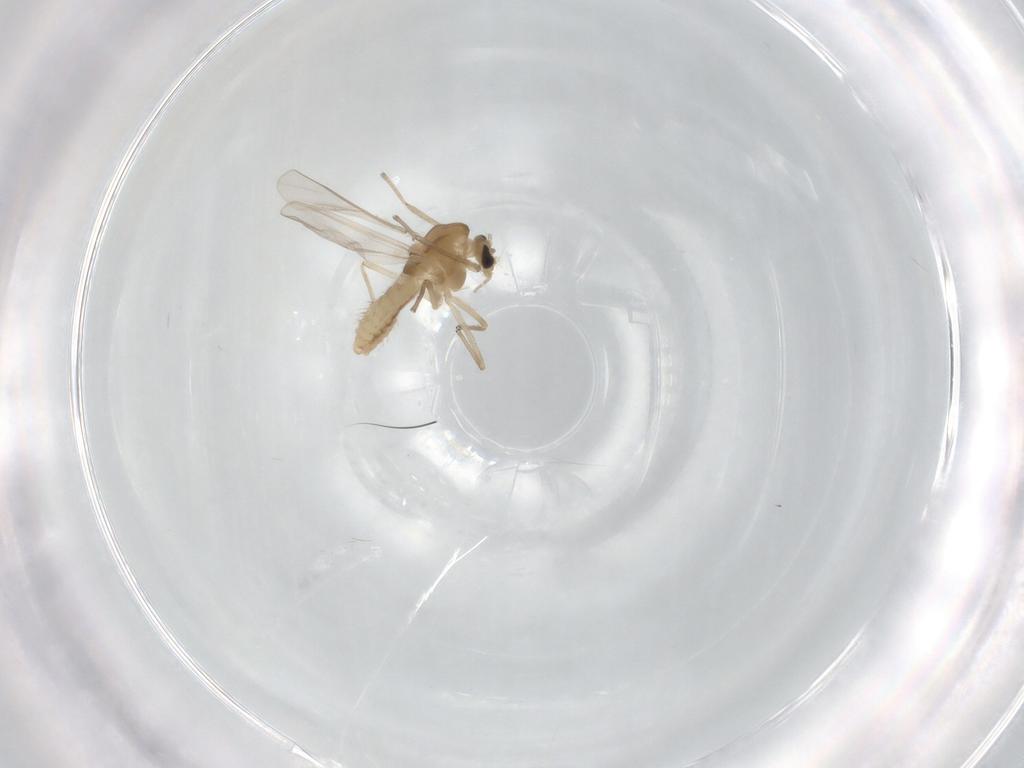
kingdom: Animalia
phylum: Arthropoda
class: Insecta
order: Diptera
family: Chironomidae
